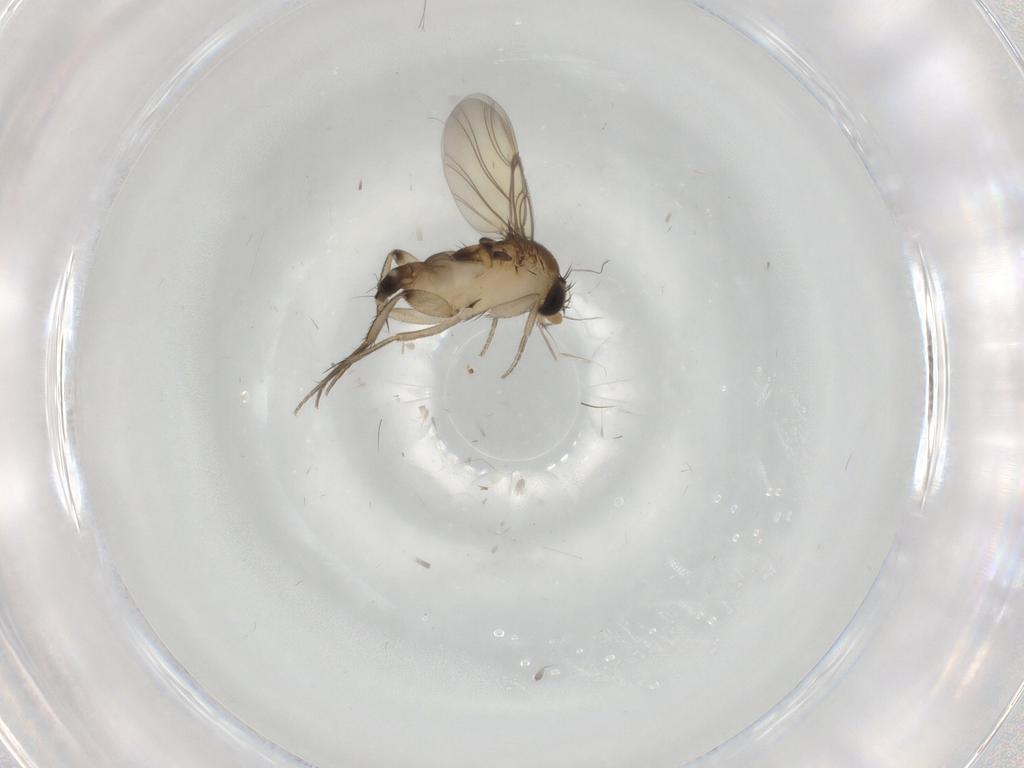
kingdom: Animalia
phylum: Arthropoda
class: Insecta
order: Diptera
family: Phoridae
